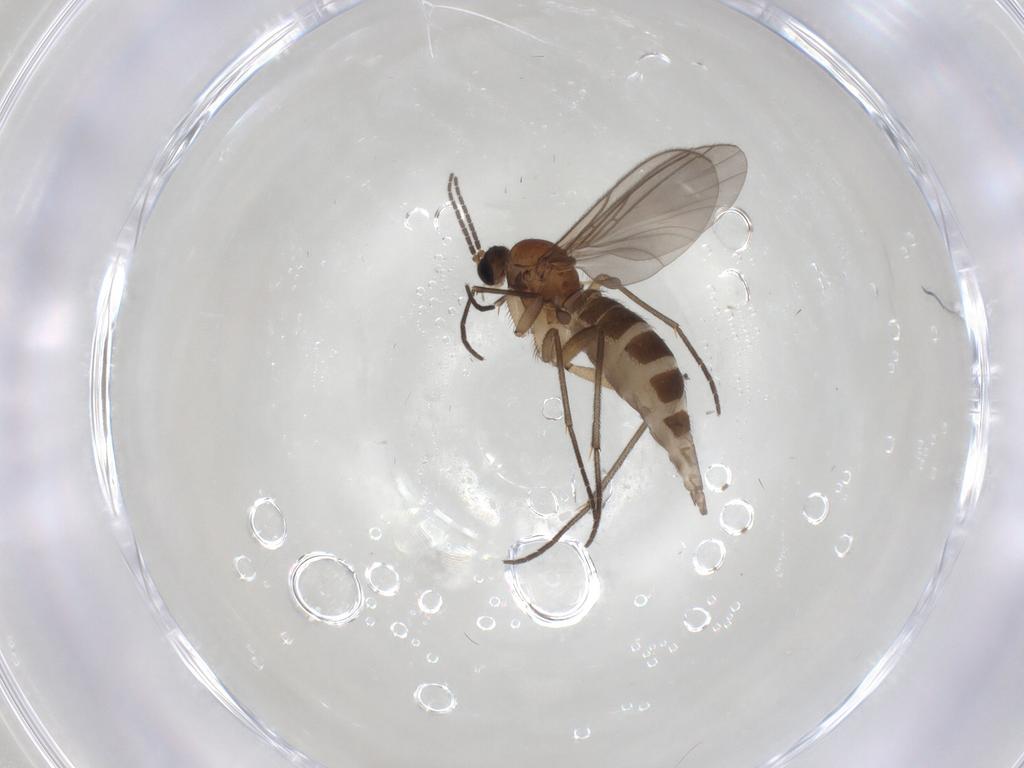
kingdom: Animalia
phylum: Arthropoda
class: Insecta
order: Diptera
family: Sciaridae
